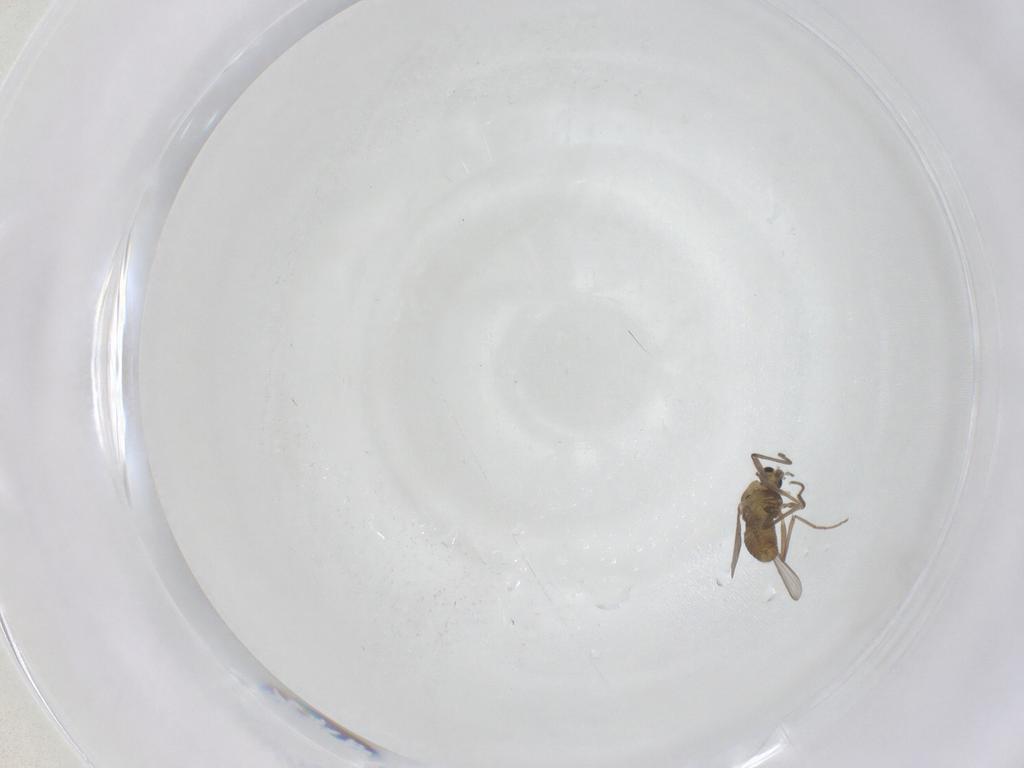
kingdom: Animalia
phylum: Arthropoda
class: Insecta
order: Diptera
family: Chironomidae
